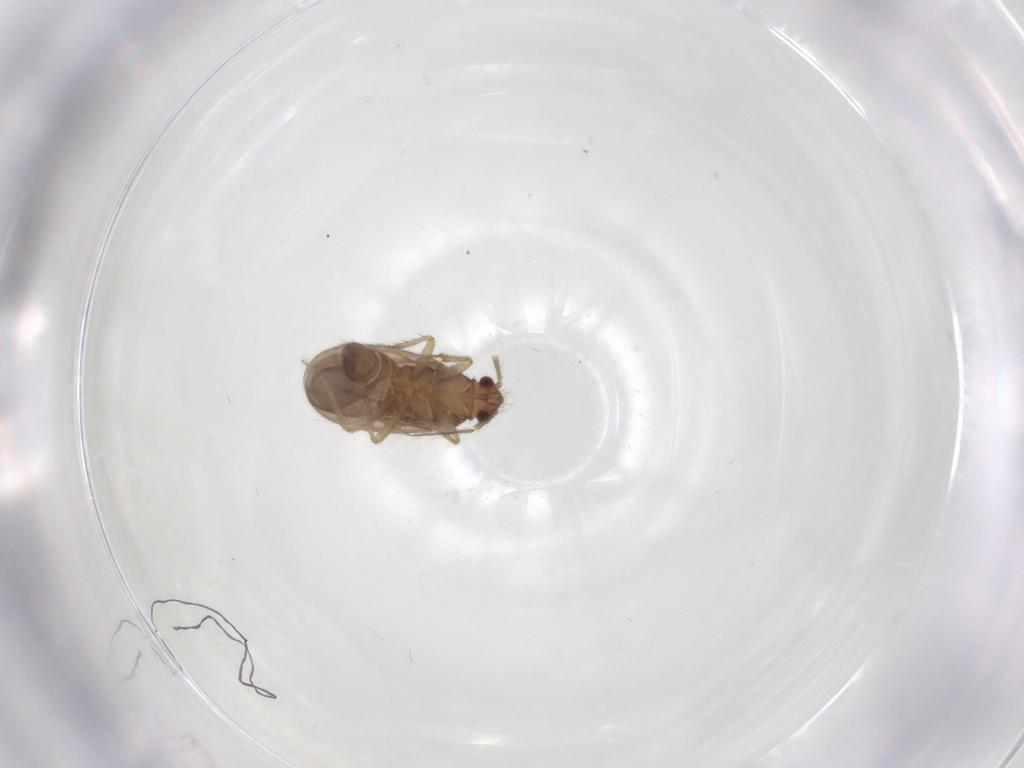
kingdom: Animalia
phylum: Arthropoda
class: Insecta
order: Hemiptera
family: Ceratocombidae
